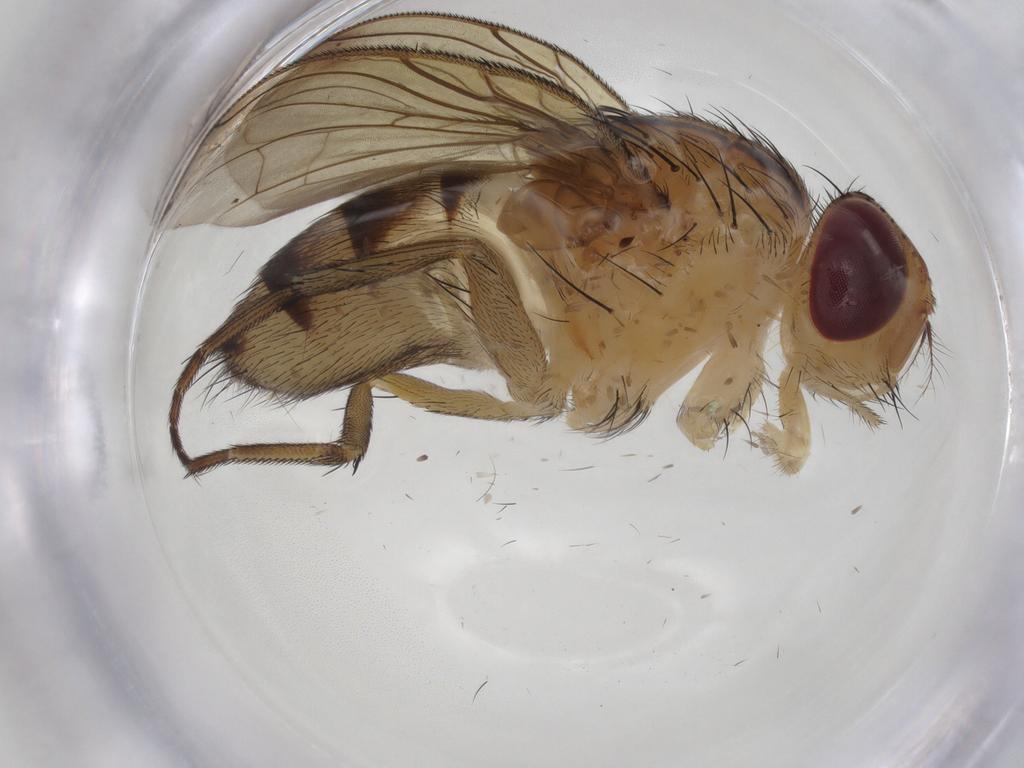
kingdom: Animalia
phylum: Arthropoda
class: Insecta
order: Diptera
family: Calliphoridae
